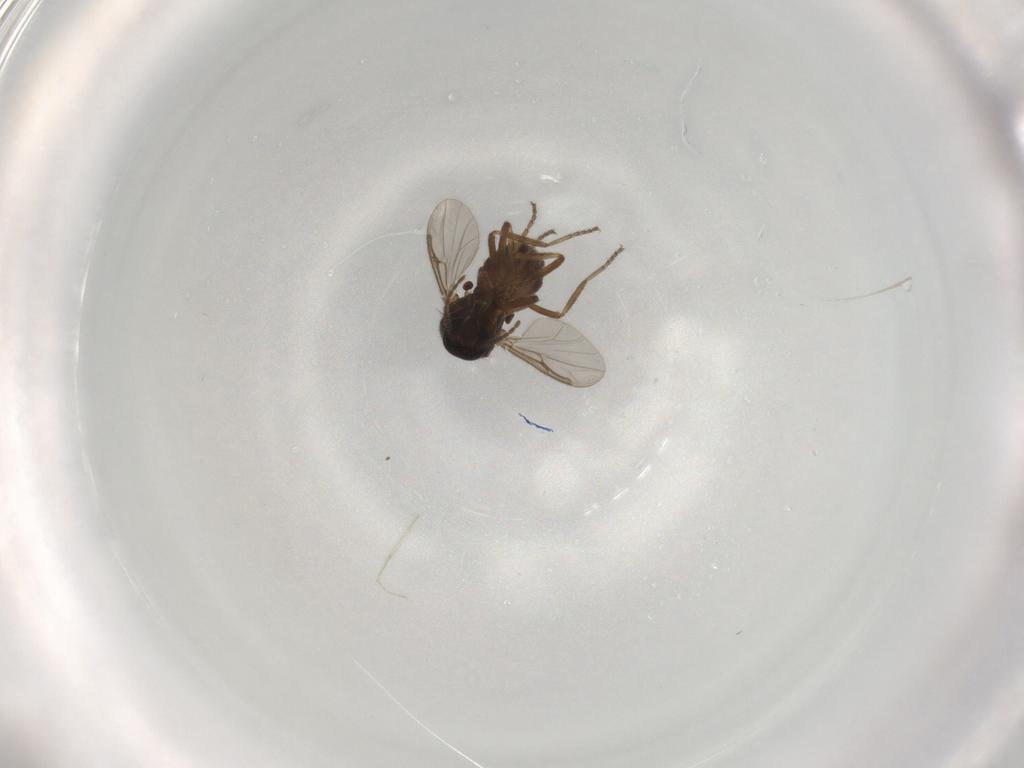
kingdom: Animalia
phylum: Arthropoda
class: Insecta
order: Diptera
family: Ceratopogonidae
